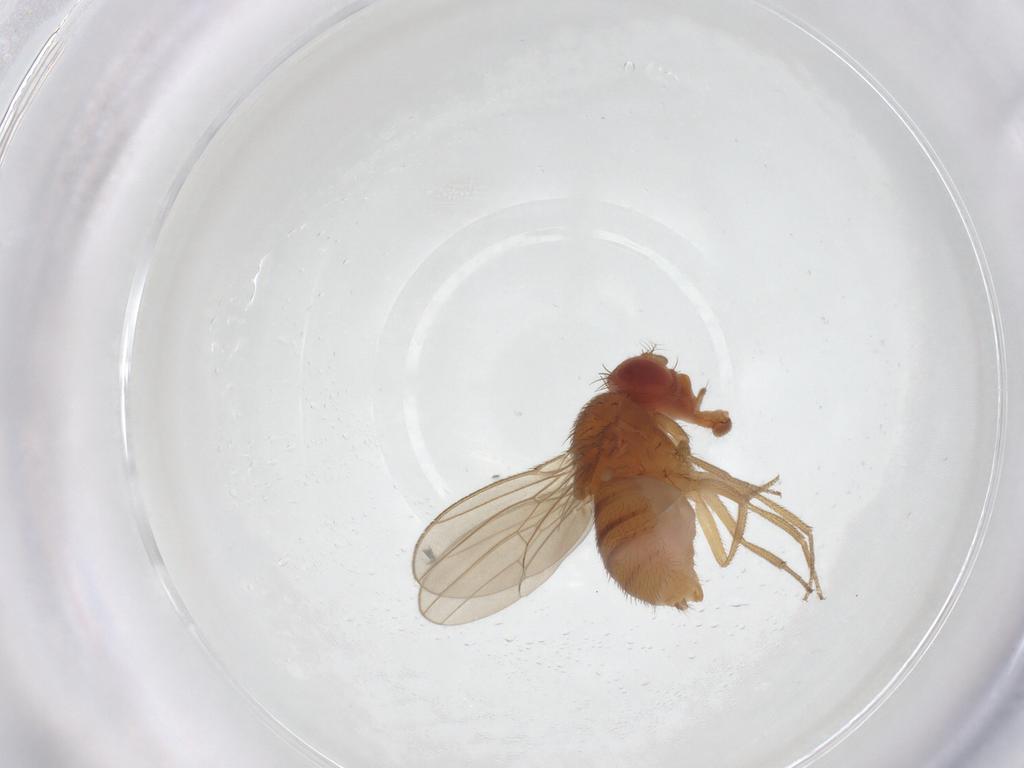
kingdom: Animalia
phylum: Arthropoda
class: Insecta
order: Diptera
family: Drosophilidae
